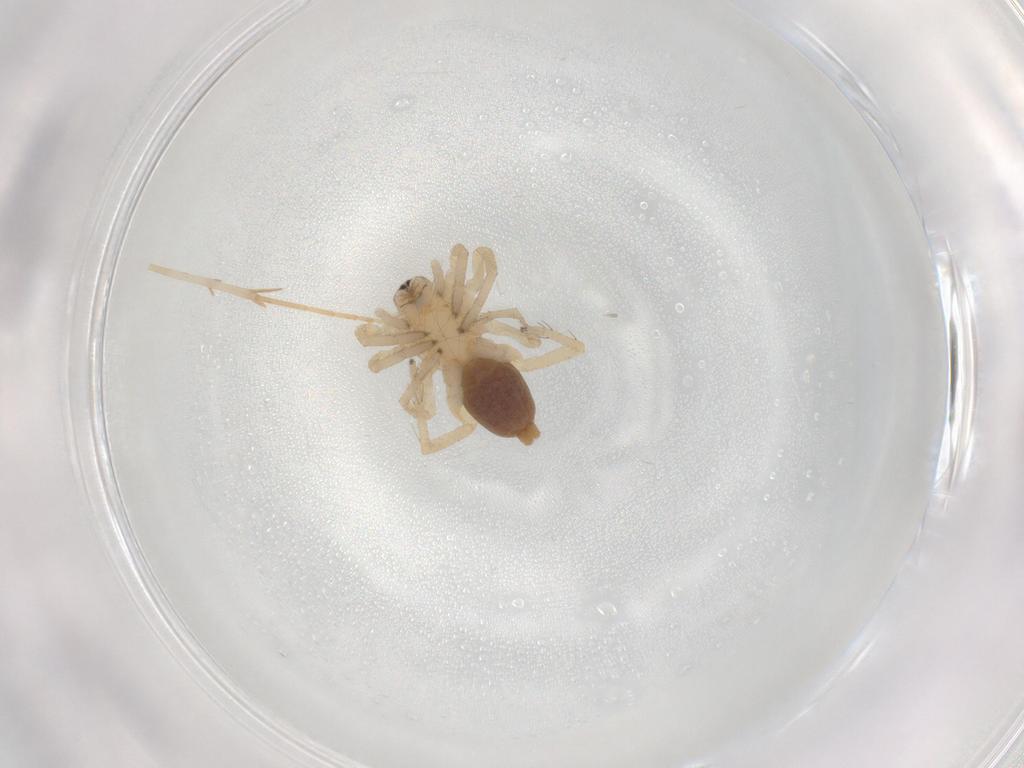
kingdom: Animalia
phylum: Arthropoda
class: Arachnida
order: Araneae
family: Clubionidae
